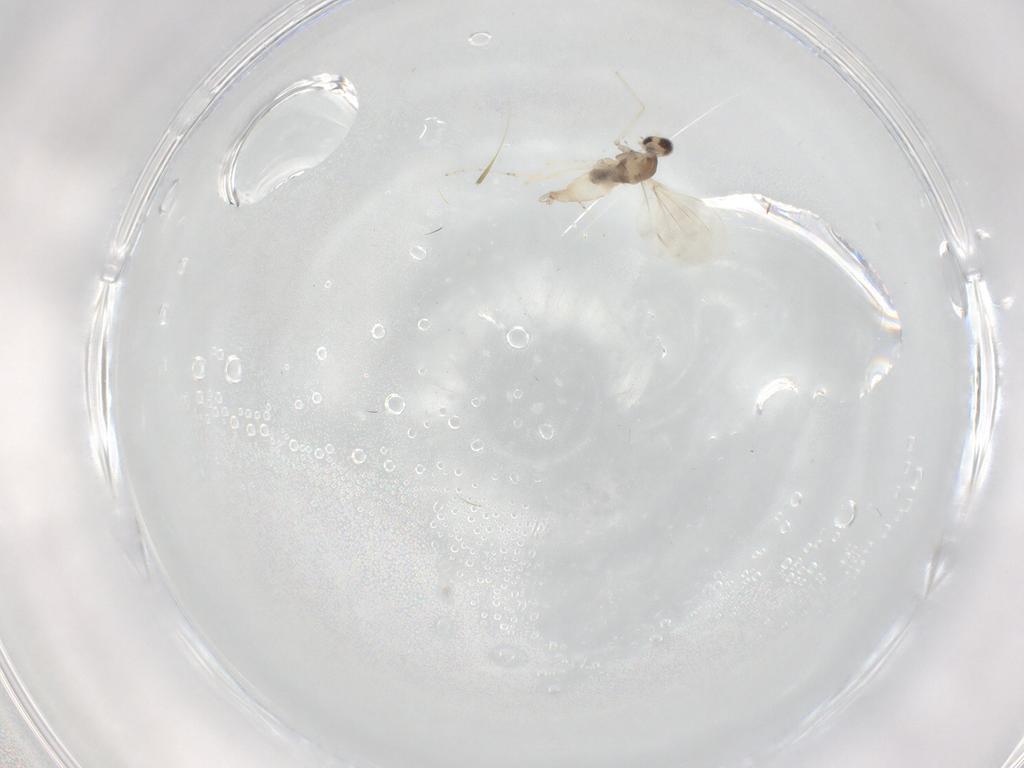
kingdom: Animalia
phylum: Arthropoda
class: Insecta
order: Diptera
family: Cecidomyiidae
